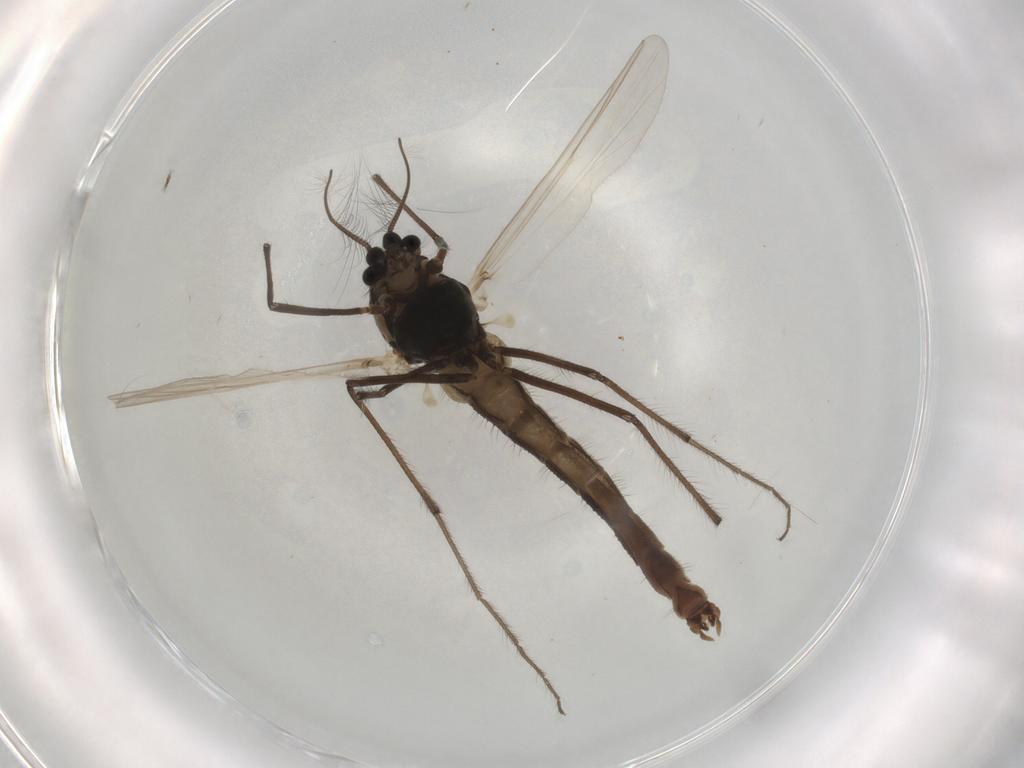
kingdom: Animalia
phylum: Arthropoda
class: Insecta
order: Diptera
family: Chironomidae
